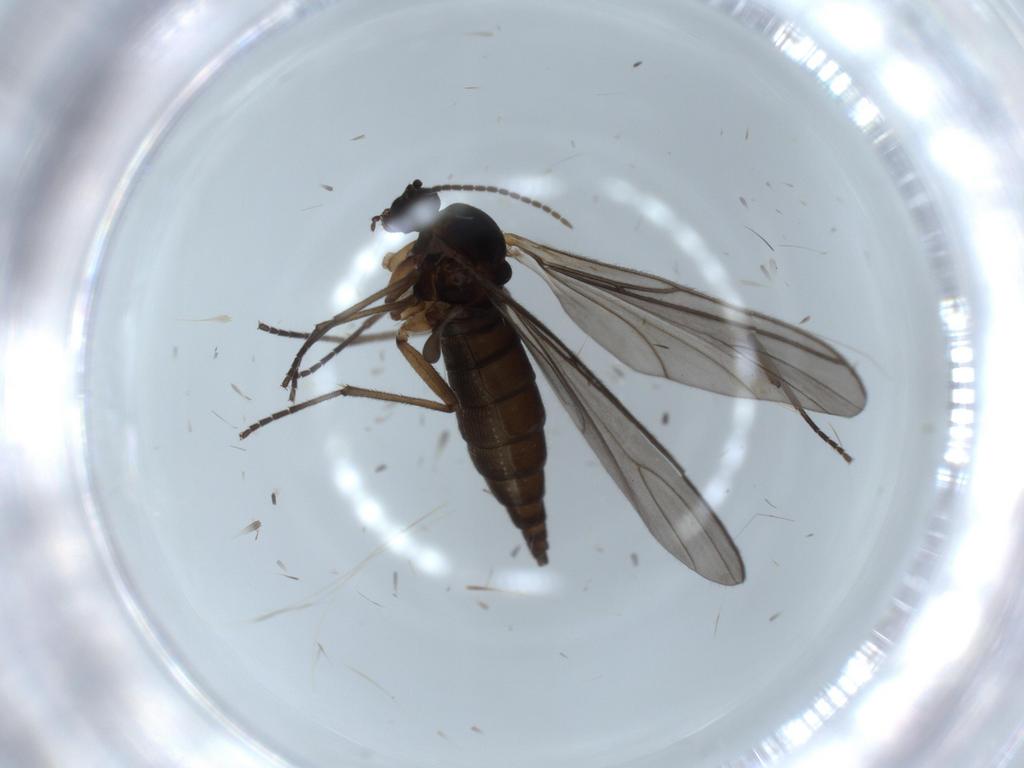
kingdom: Animalia
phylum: Arthropoda
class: Insecta
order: Diptera
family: Sciaridae
